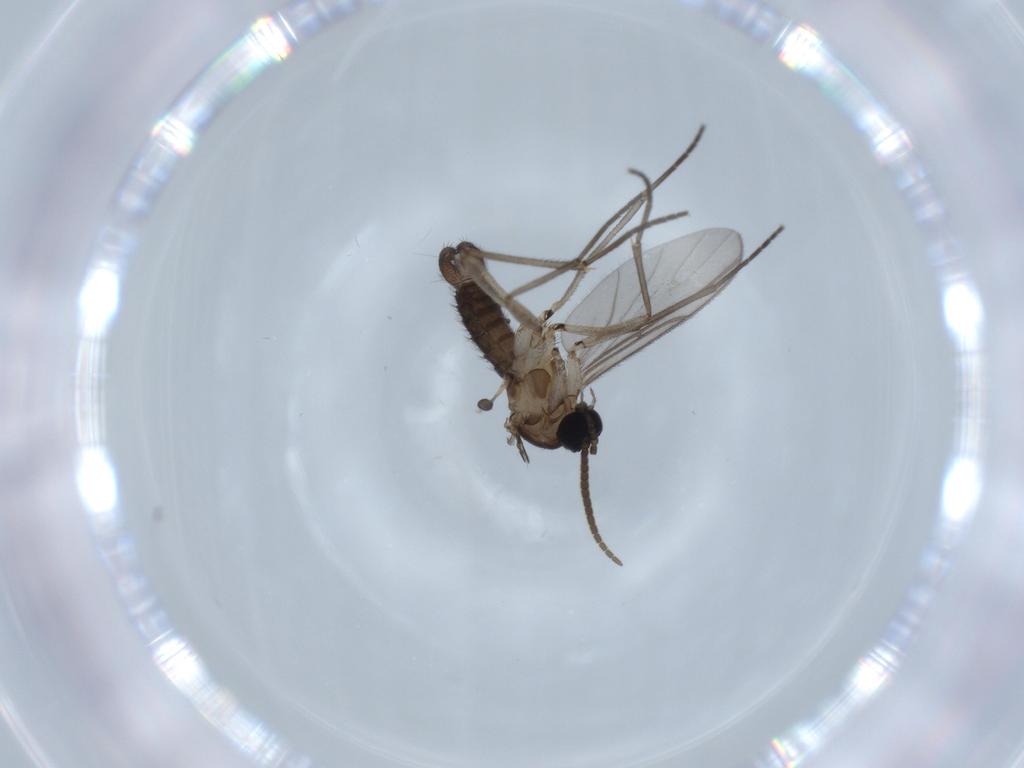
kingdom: Animalia
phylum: Arthropoda
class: Insecta
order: Diptera
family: Sciaridae
